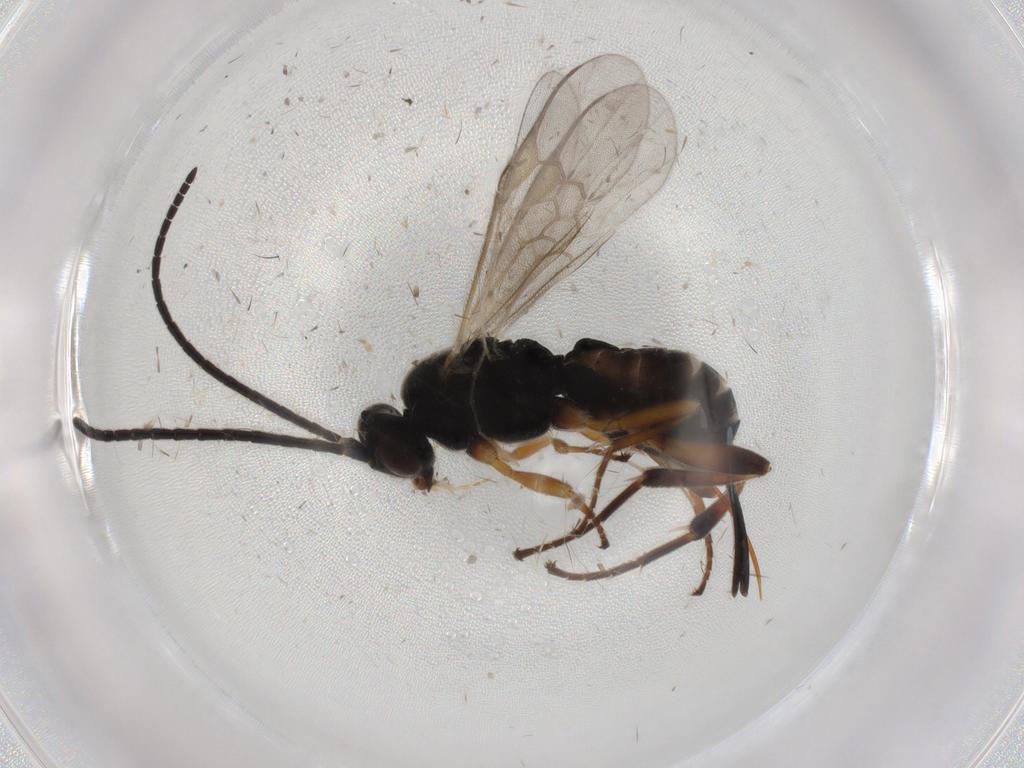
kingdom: Animalia
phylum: Arthropoda
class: Insecta
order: Hymenoptera
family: Braconidae
